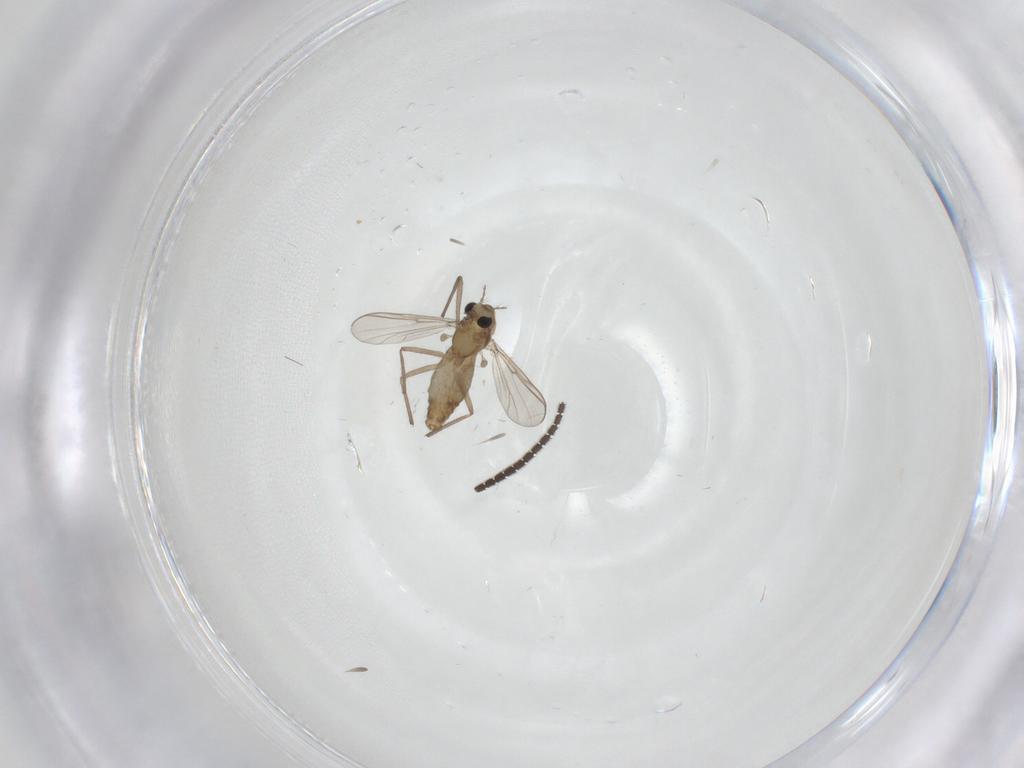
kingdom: Animalia
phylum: Arthropoda
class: Insecta
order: Diptera
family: Chironomidae
